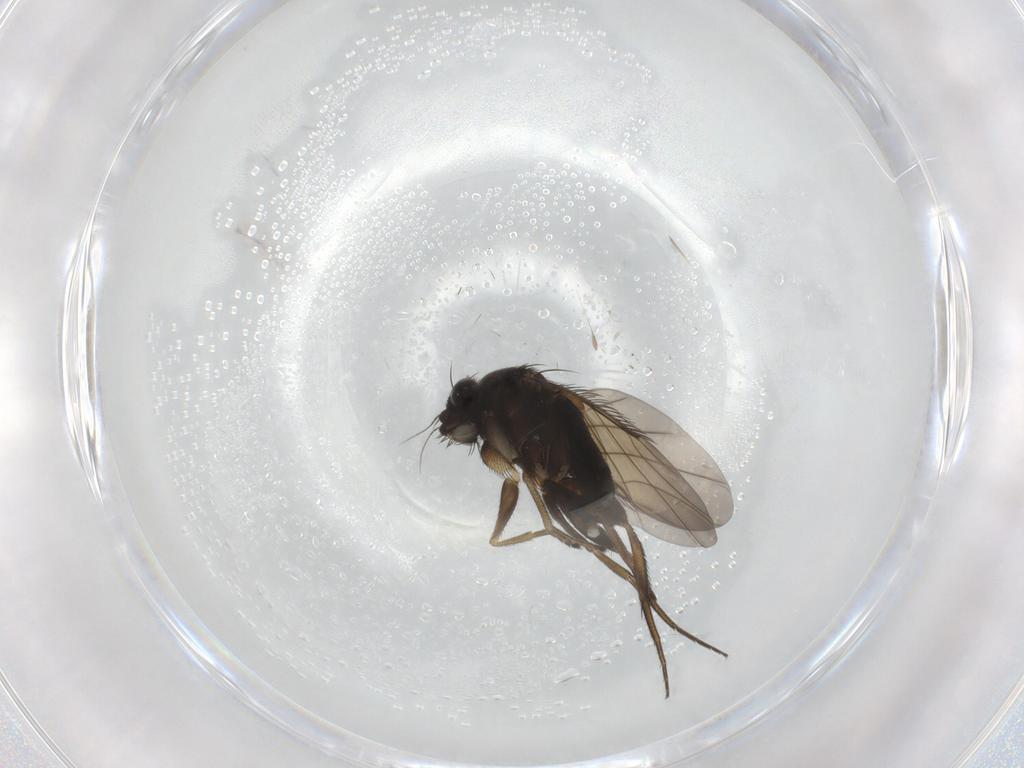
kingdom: Animalia
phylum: Arthropoda
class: Insecta
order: Diptera
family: Phoridae
